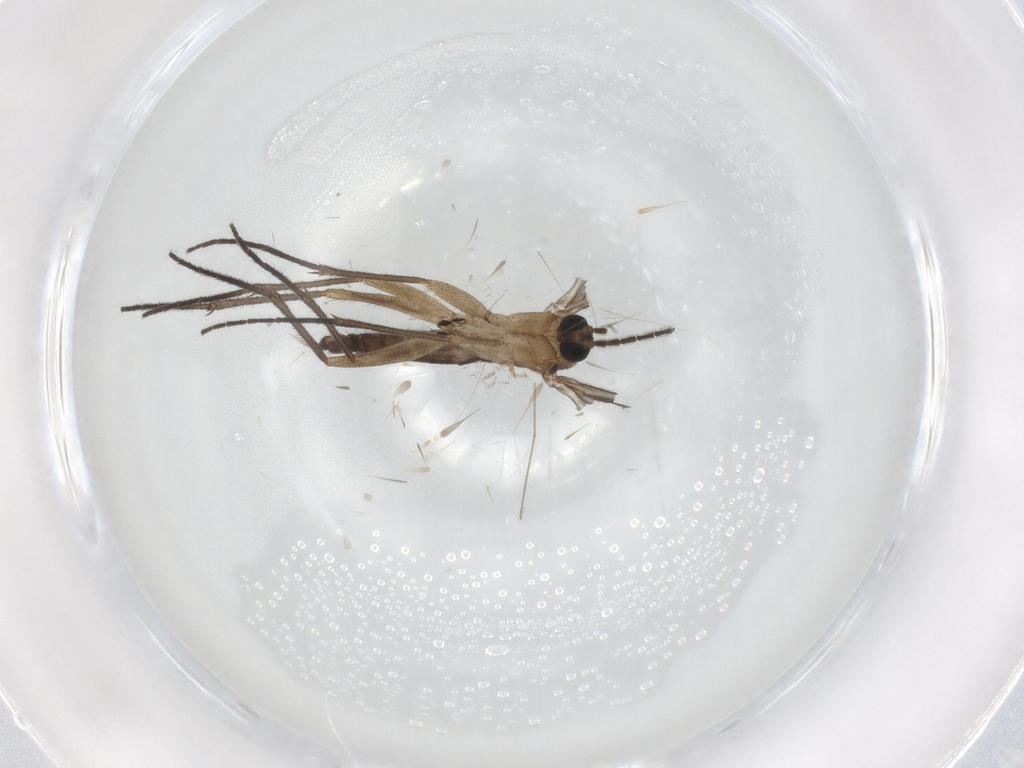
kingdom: Animalia
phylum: Arthropoda
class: Insecta
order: Diptera
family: Sciaridae
